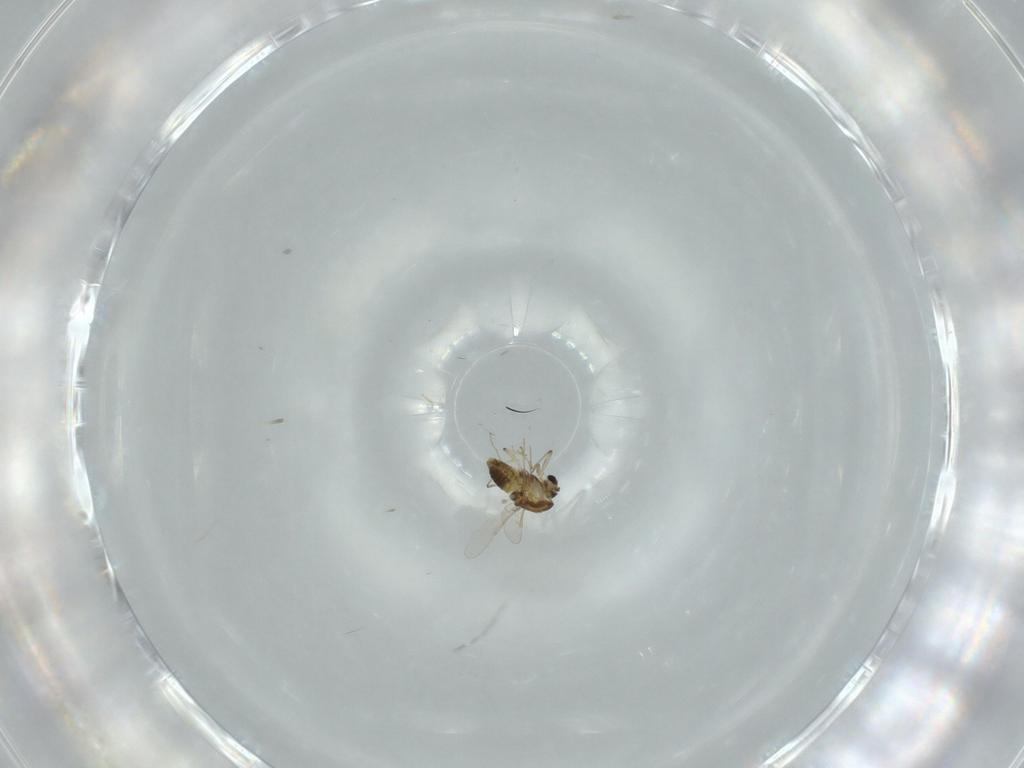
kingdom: Animalia
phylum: Arthropoda
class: Insecta
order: Diptera
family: Chironomidae
